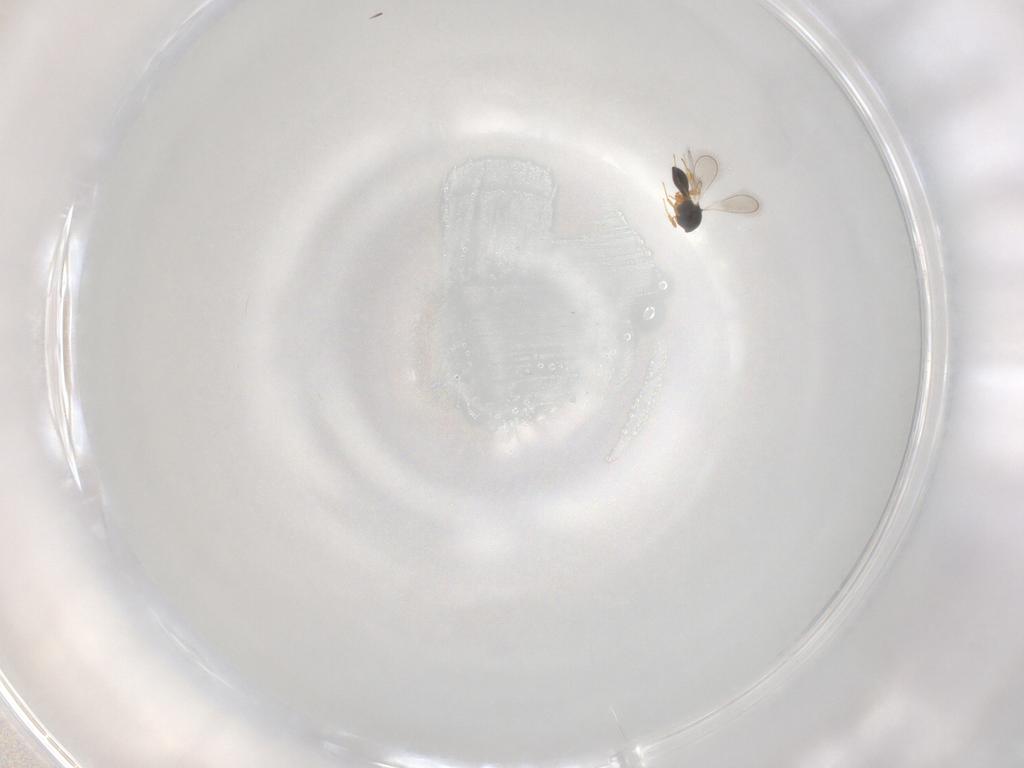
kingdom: Animalia
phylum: Arthropoda
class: Insecta
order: Hymenoptera
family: Platygastridae
